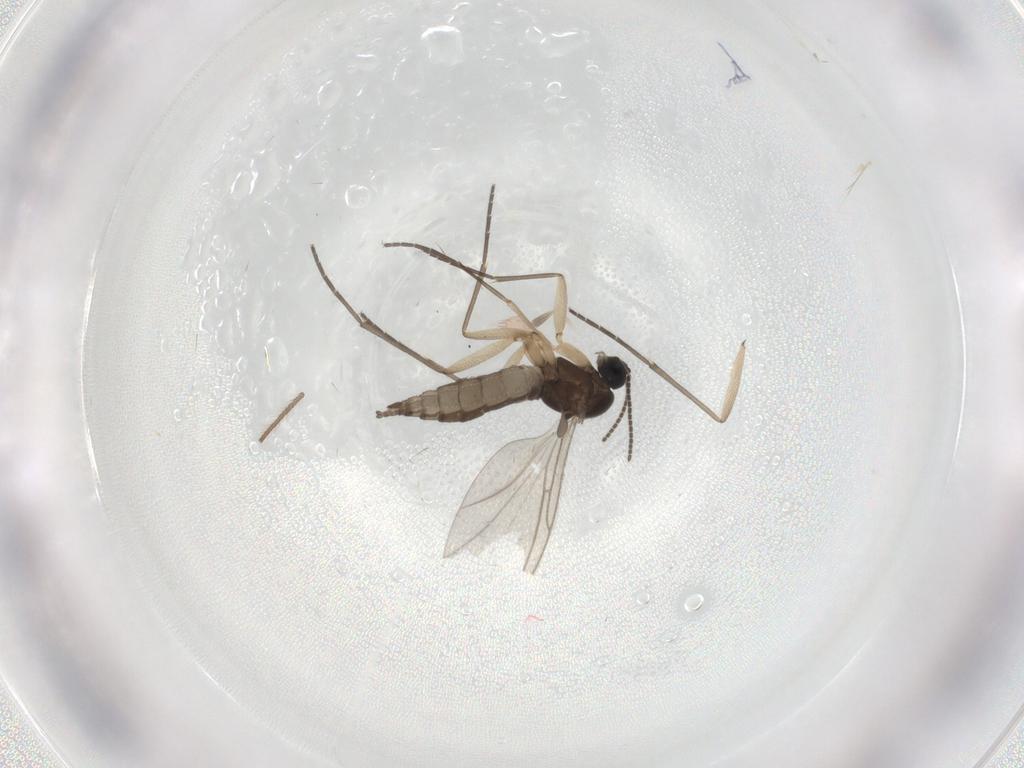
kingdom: Animalia
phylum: Arthropoda
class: Insecta
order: Diptera
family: Sciaridae
